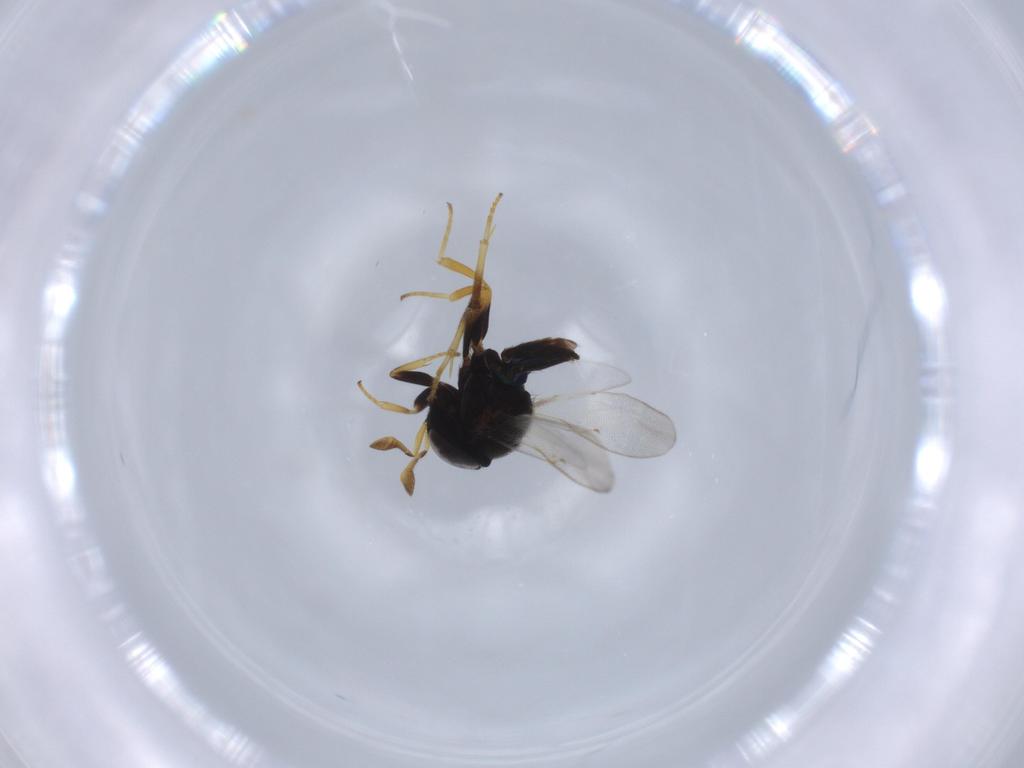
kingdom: Animalia
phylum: Arthropoda
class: Insecta
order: Hymenoptera
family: Encyrtidae
